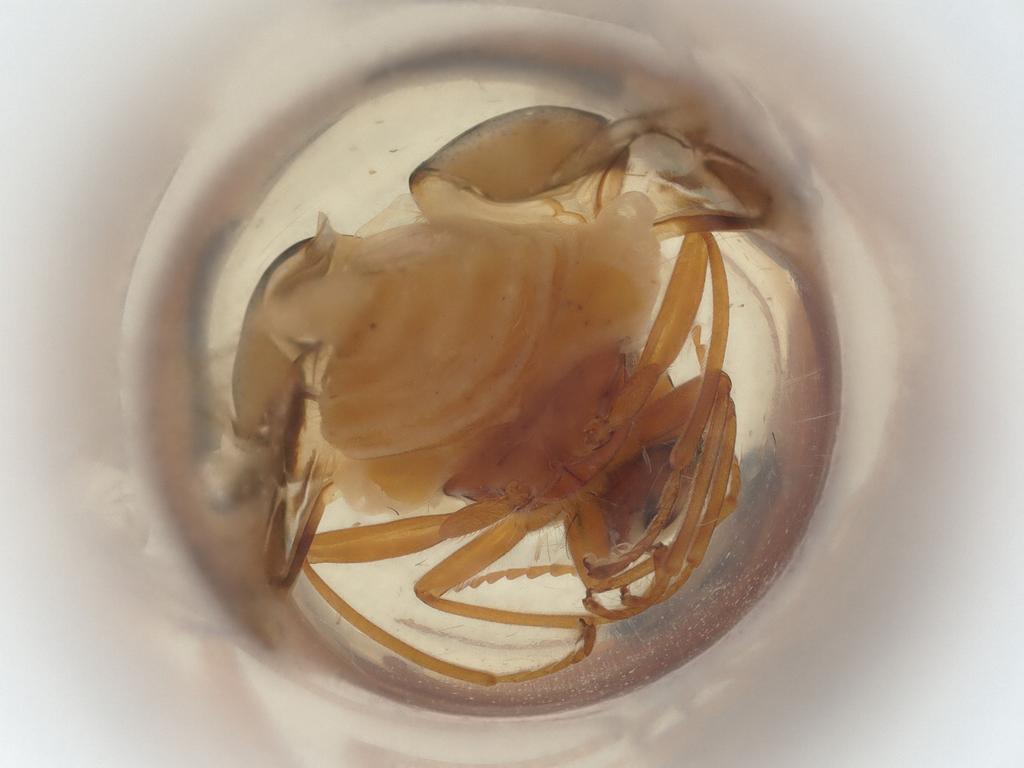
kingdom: Animalia
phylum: Arthropoda
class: Insecta
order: Coleoptera
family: Melyridae
